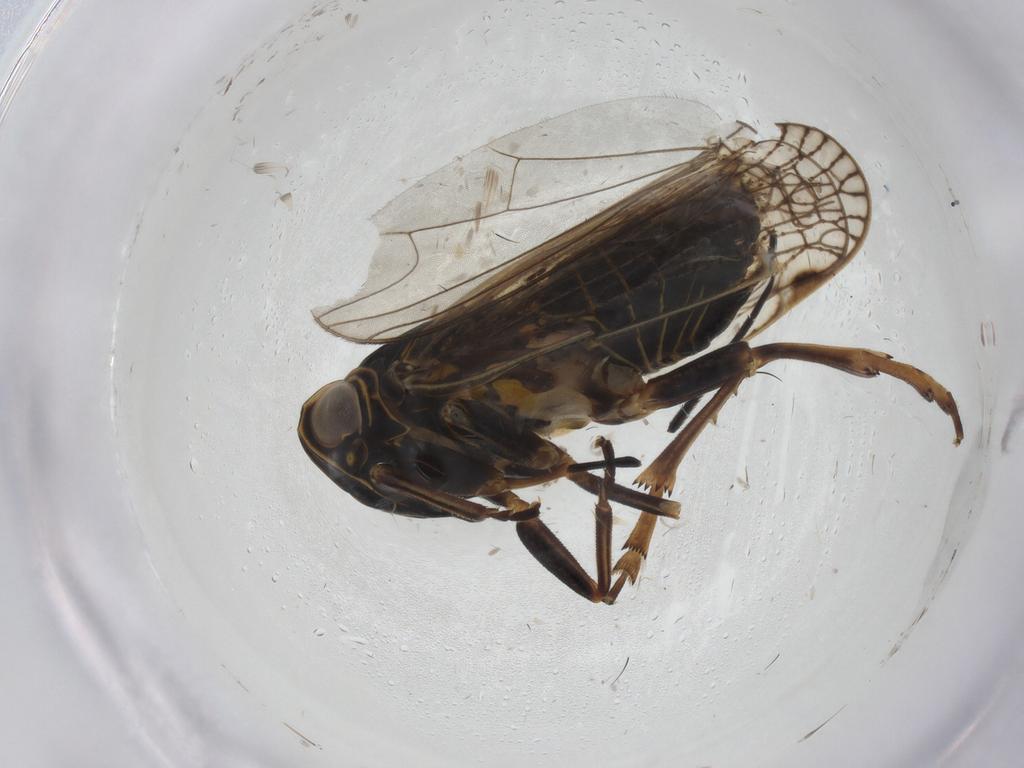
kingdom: Animalia
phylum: Arthropoda
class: Insecta
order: Hemiptera
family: Cixiidae
